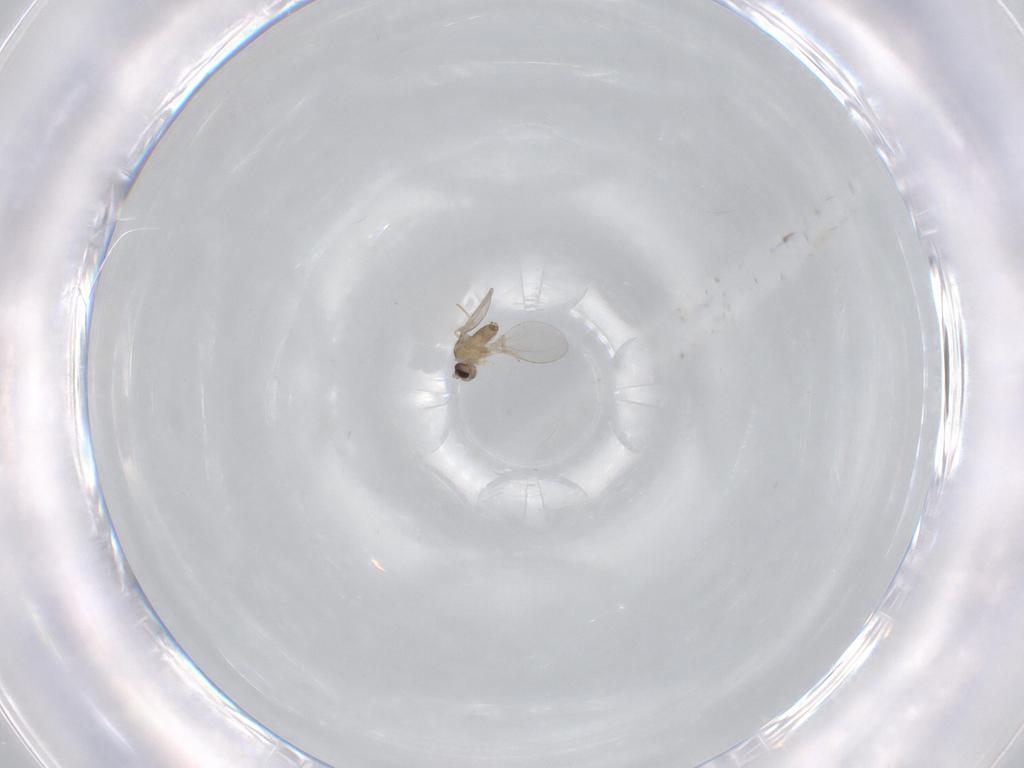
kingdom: Animalia
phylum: Arthropoda
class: Insecta
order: Diptera
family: Cecidomyiidae
